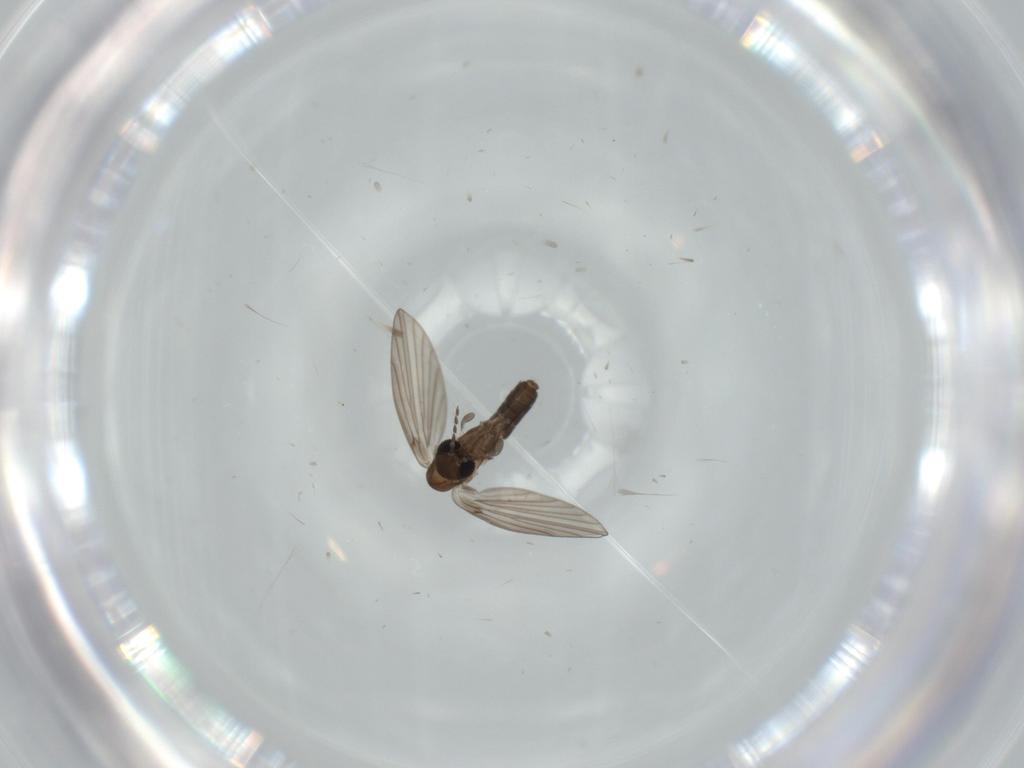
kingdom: Animalia
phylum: Arthropoda
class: Insecta
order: Diptera
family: Psychodidae
